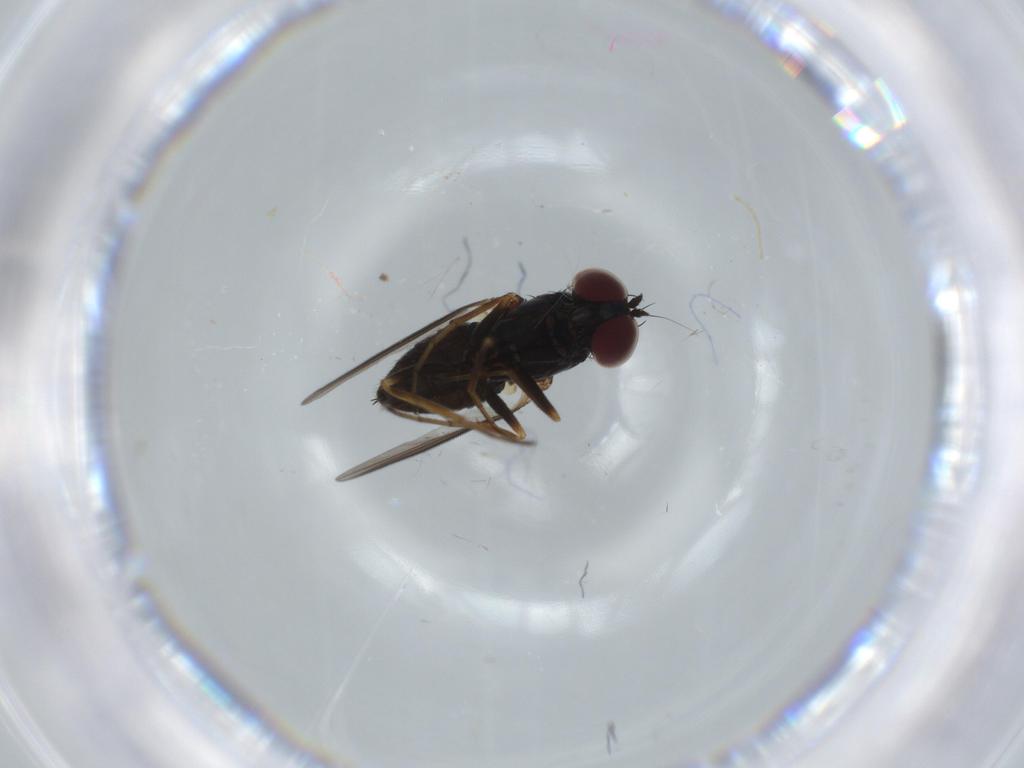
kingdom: Animalia
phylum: Arthropoda
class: Insecta
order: Diptera
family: Dolichopodidae
